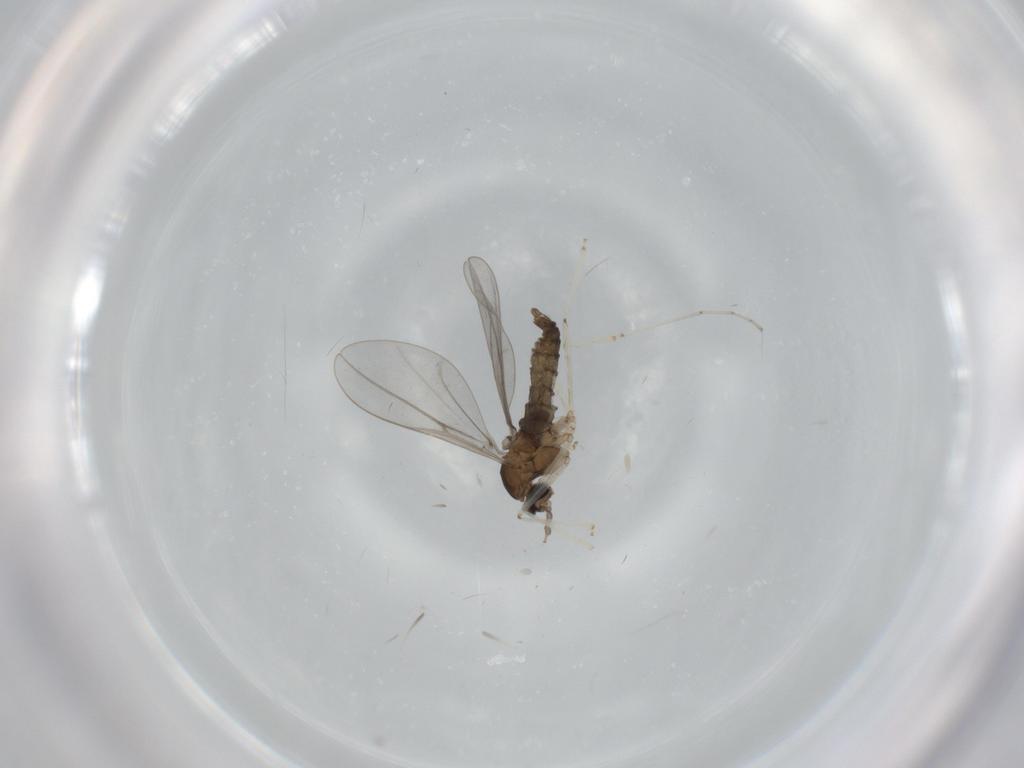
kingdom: Animalia
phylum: Arthropoda
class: Insecta
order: Diptera
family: Cecidomyiidae
